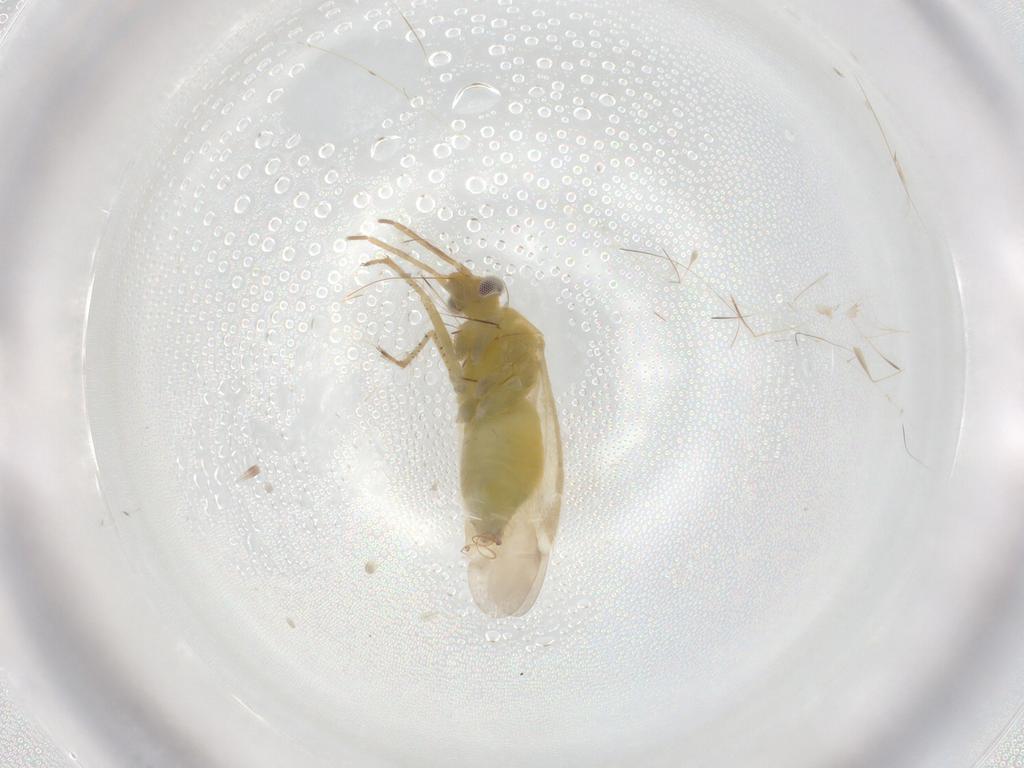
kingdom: Animalia
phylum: Arthropoda
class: Insecta
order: Hemiptera
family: Miridae
